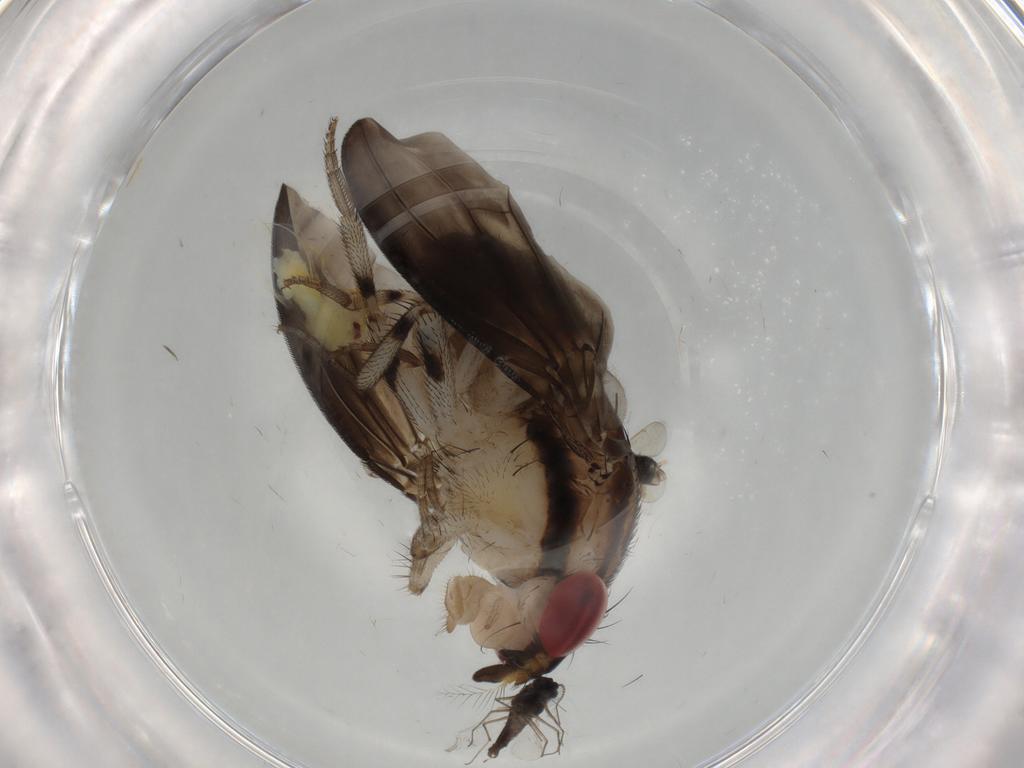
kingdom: Animalia
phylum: Arthropoda
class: Insecta
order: Diptera
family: Drosophilidae
